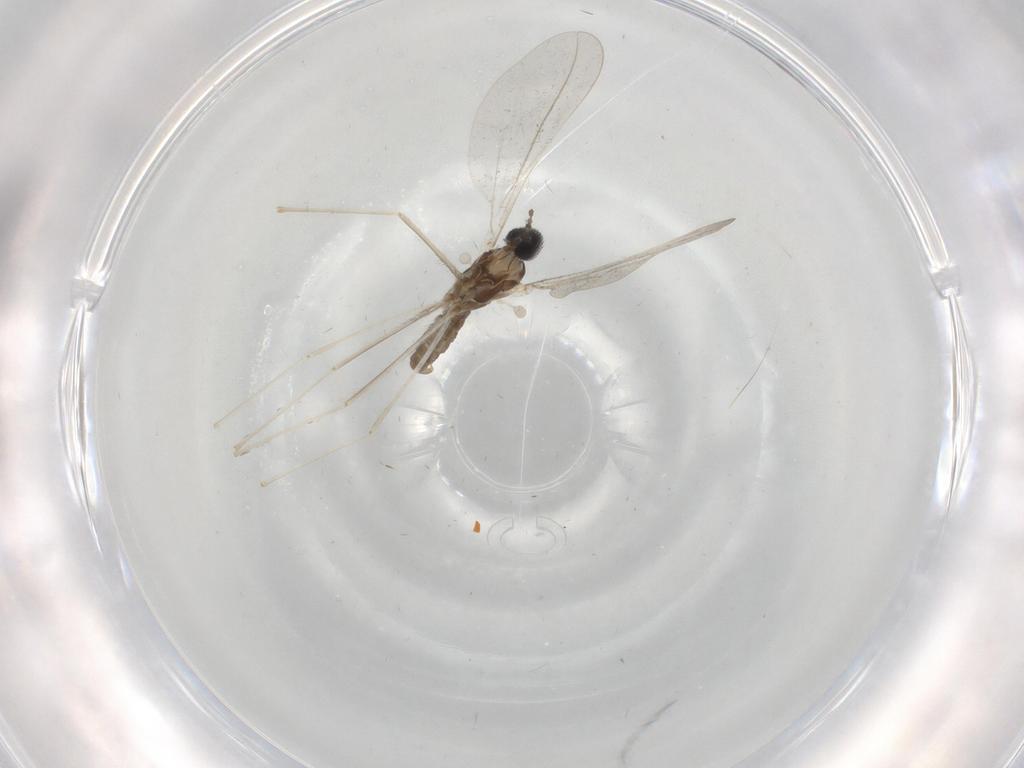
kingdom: Animalia
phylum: Arthropoda
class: Insecta
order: Diptera
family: Cecidomyiidae
